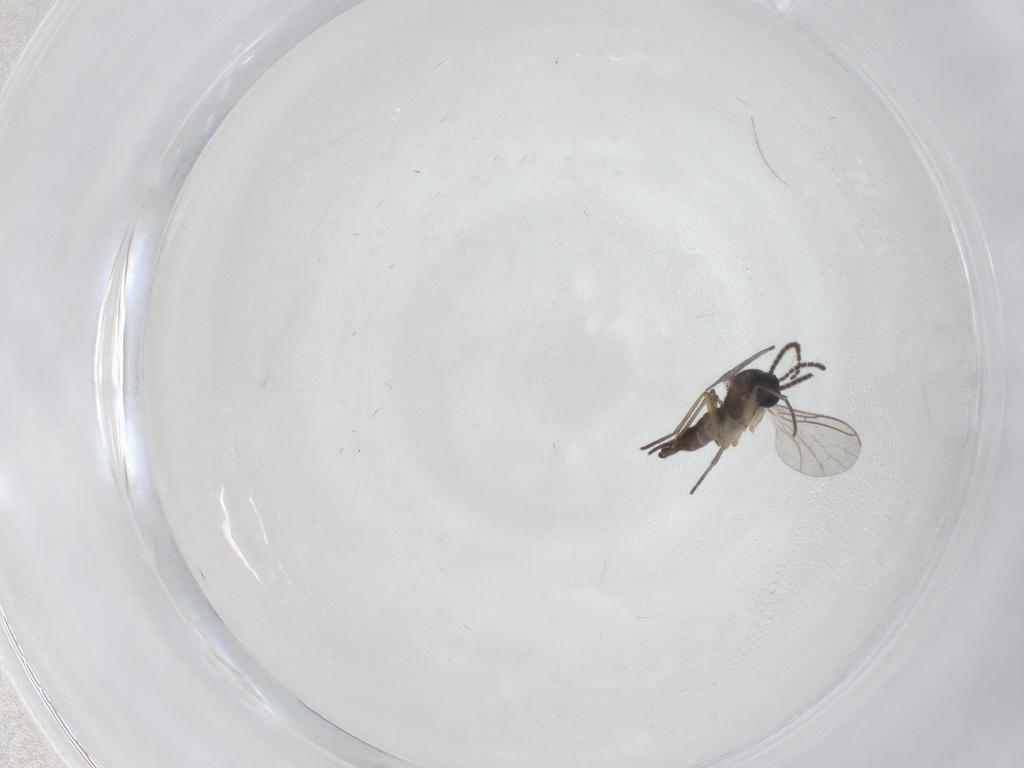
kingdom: Animalia
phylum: Arthropoda
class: Insecta
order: Diptera
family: Sciaridae
